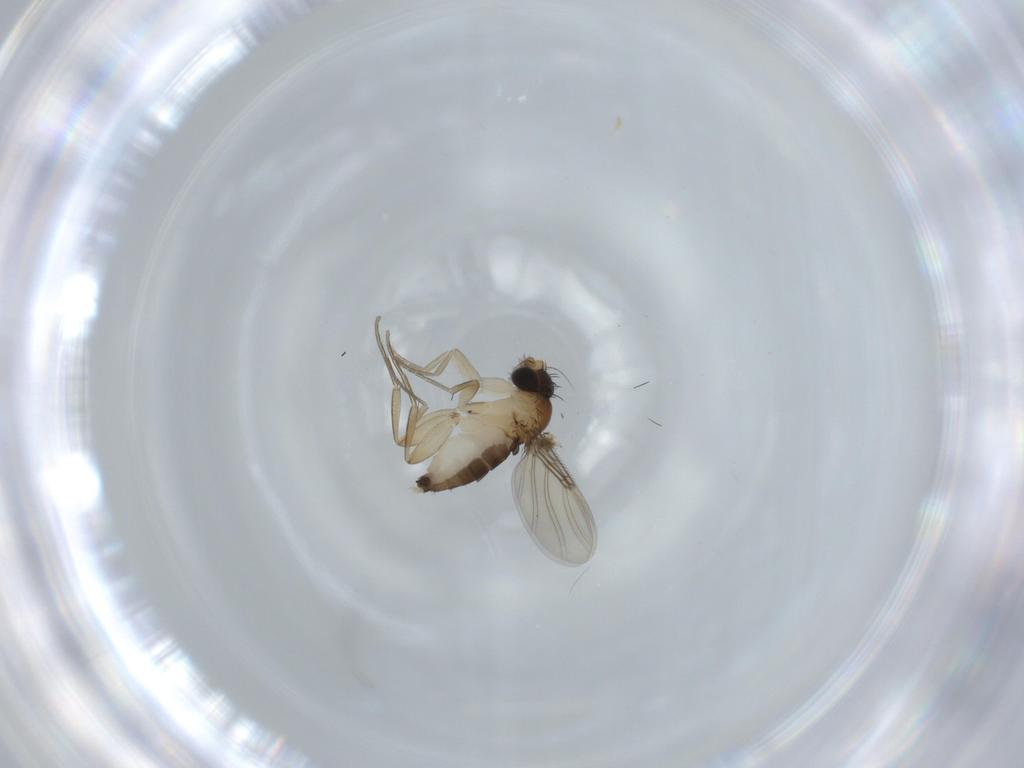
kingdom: Animalia
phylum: Arthropoda
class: Insecta
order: Diptera
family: Phoridae
